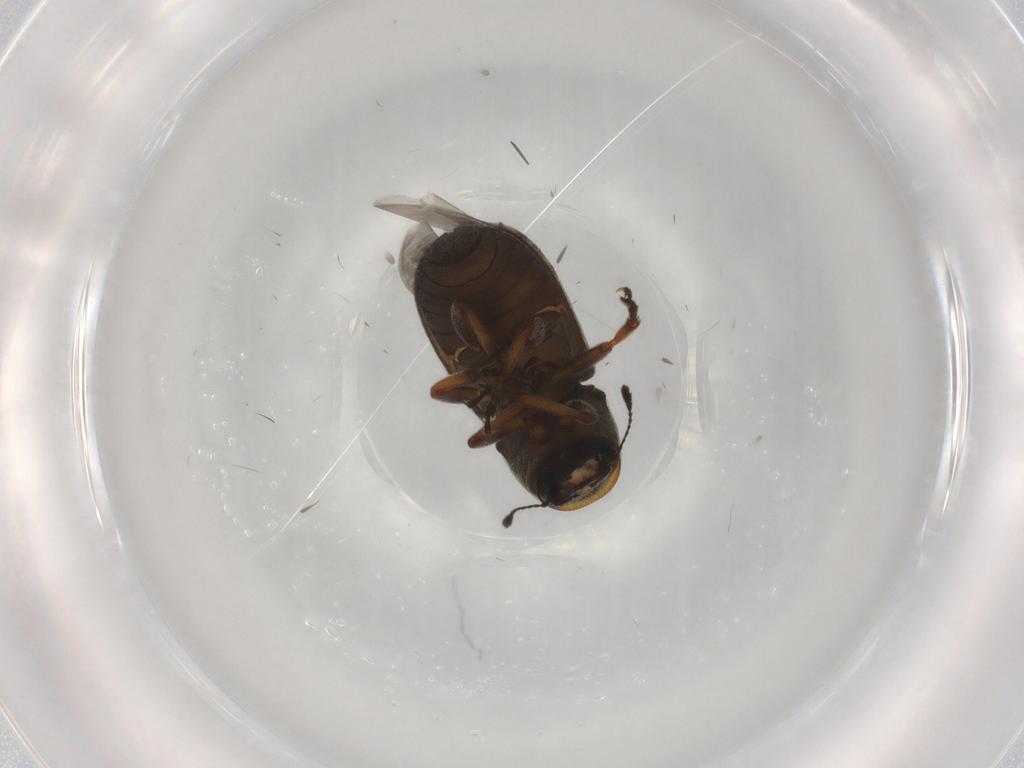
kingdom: Animalia
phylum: Arthropoda
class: Insecta
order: Coleoptera
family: Anthribidae
